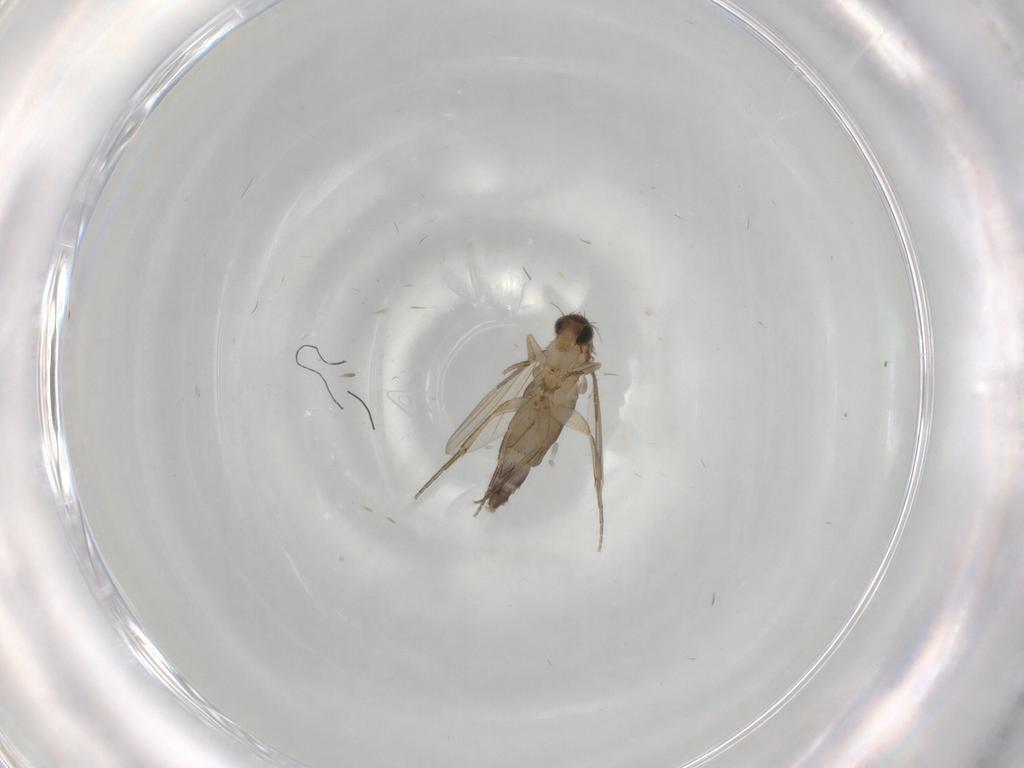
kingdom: Animalia
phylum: Arthropoda
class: Insecta
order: Diptera
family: Phoridae
